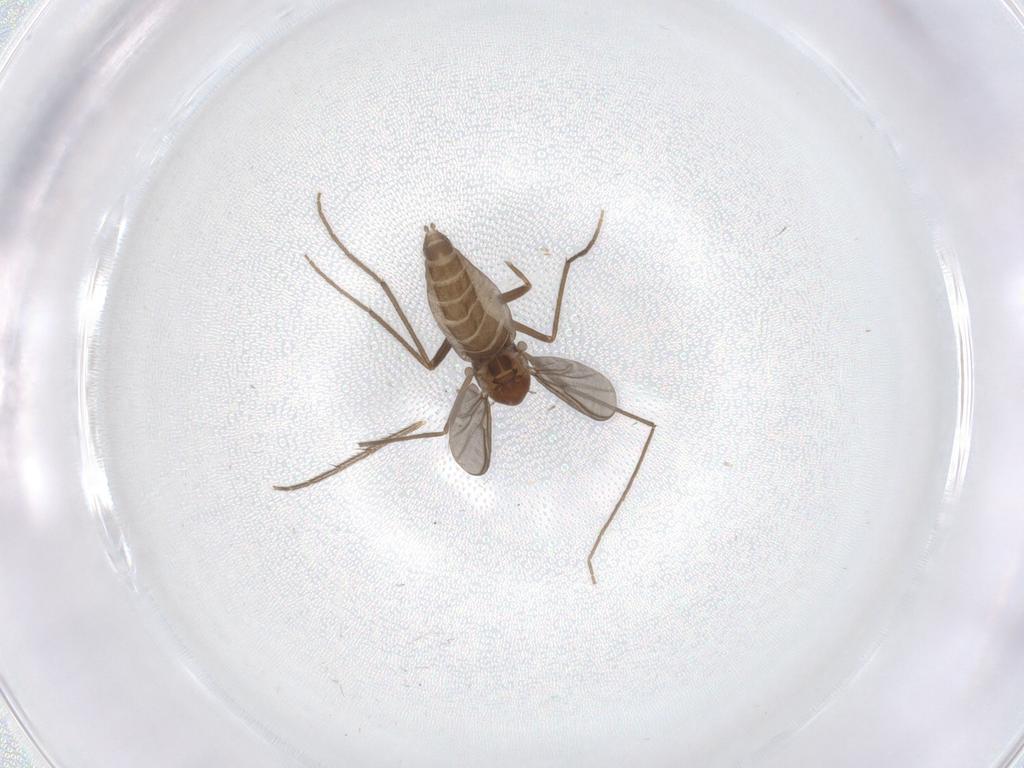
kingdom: Animalia
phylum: Arthropoda
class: Insecta
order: Diptera
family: Chironomidae
